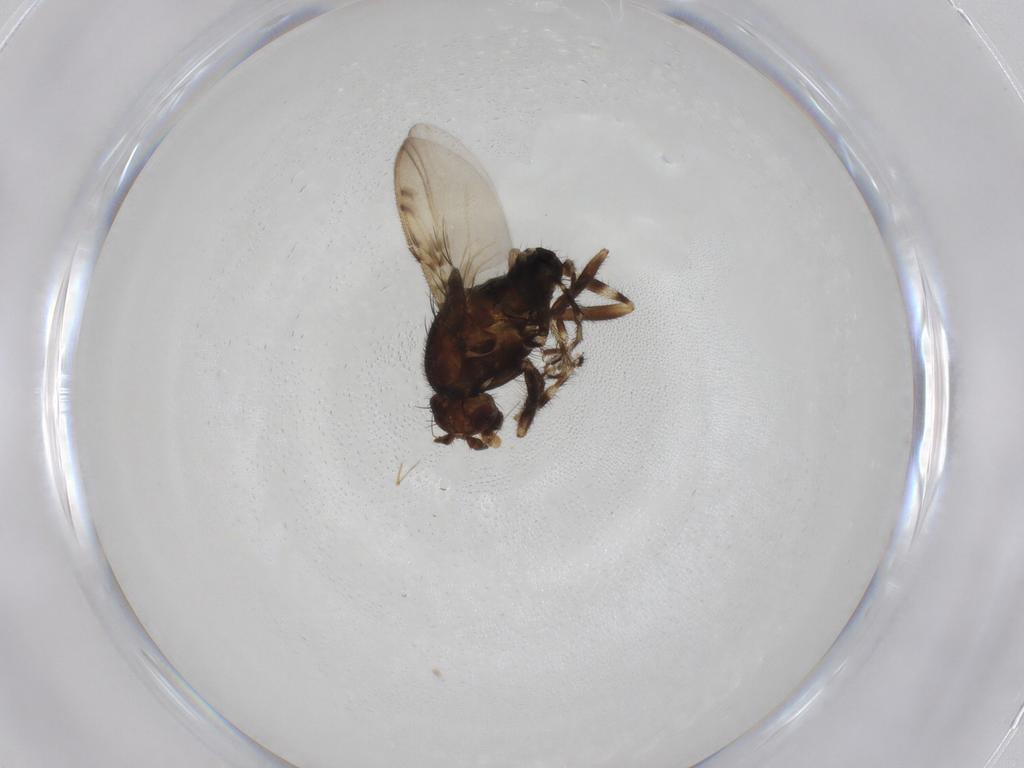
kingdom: Animalia
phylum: Arthropoda
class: Insecta
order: Diptera
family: Sphaeroceridae
